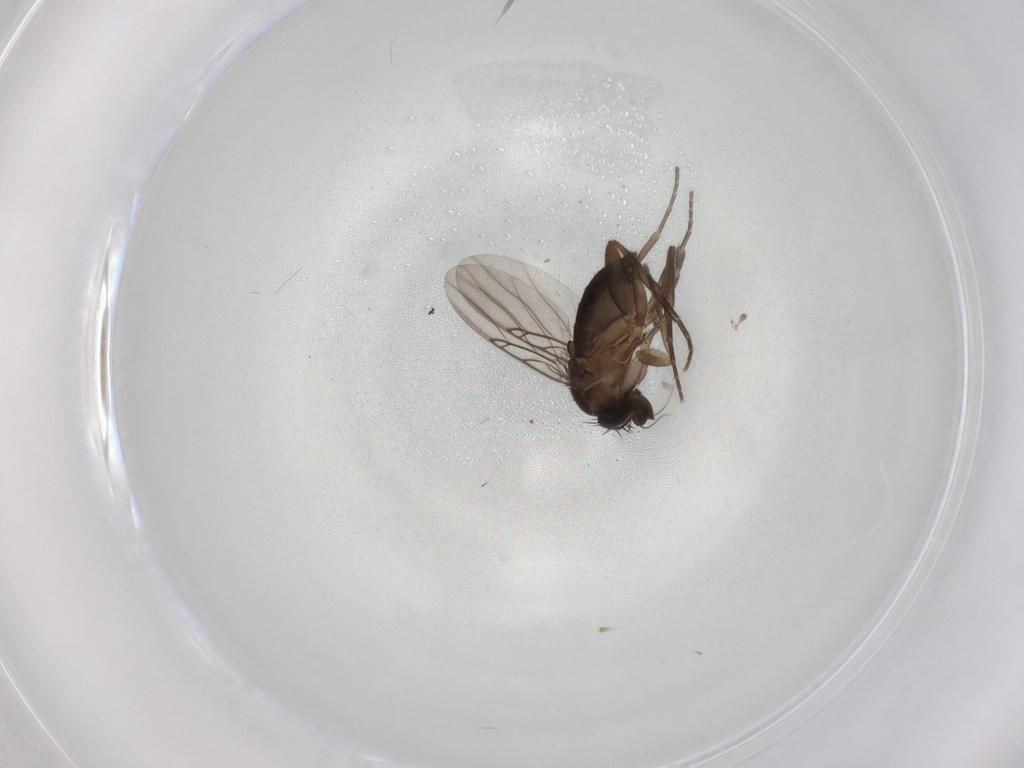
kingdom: Animalia
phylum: Arthropoda
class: Insecta
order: Diptera
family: Phoridae
